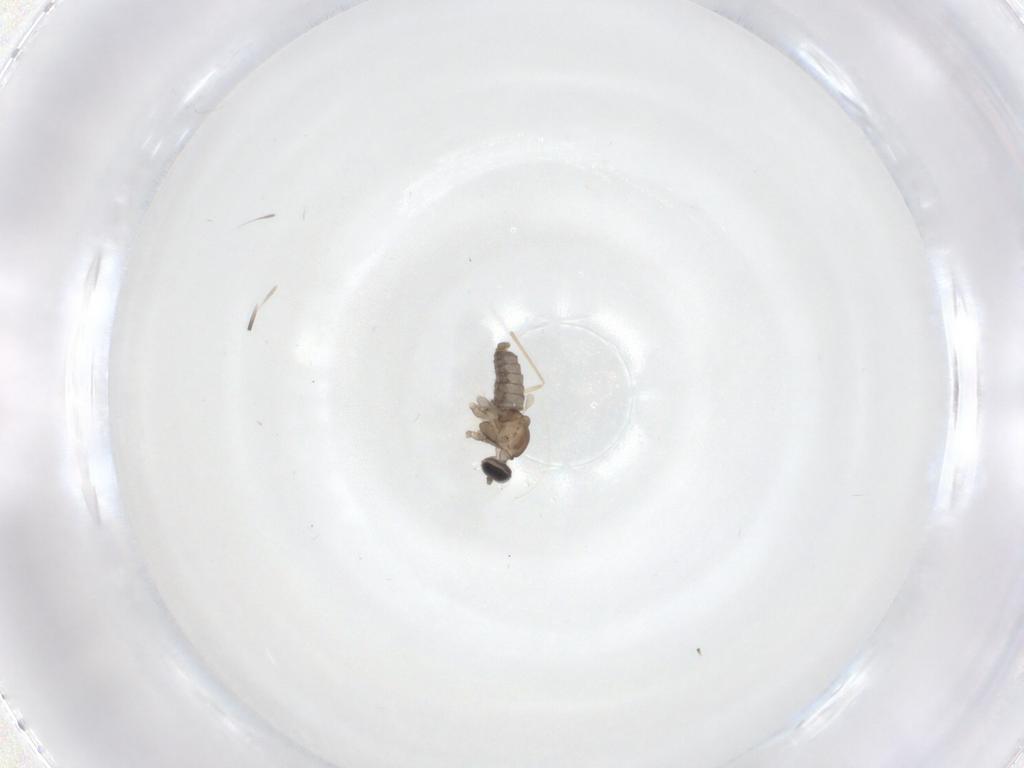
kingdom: Animalia
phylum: Arthropoda
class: Insecta
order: Diptera
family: Cecidomyiidae
